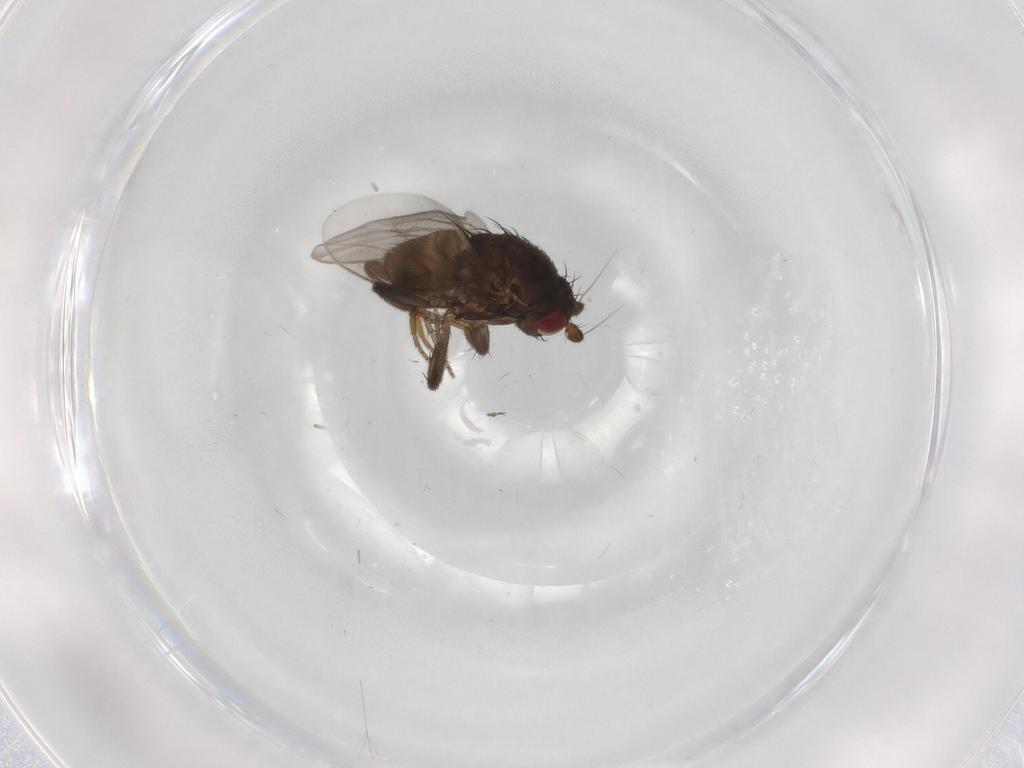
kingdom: Animalia
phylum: Arthropoda
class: Insecta
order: Diptera
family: Sphaeroceridae
